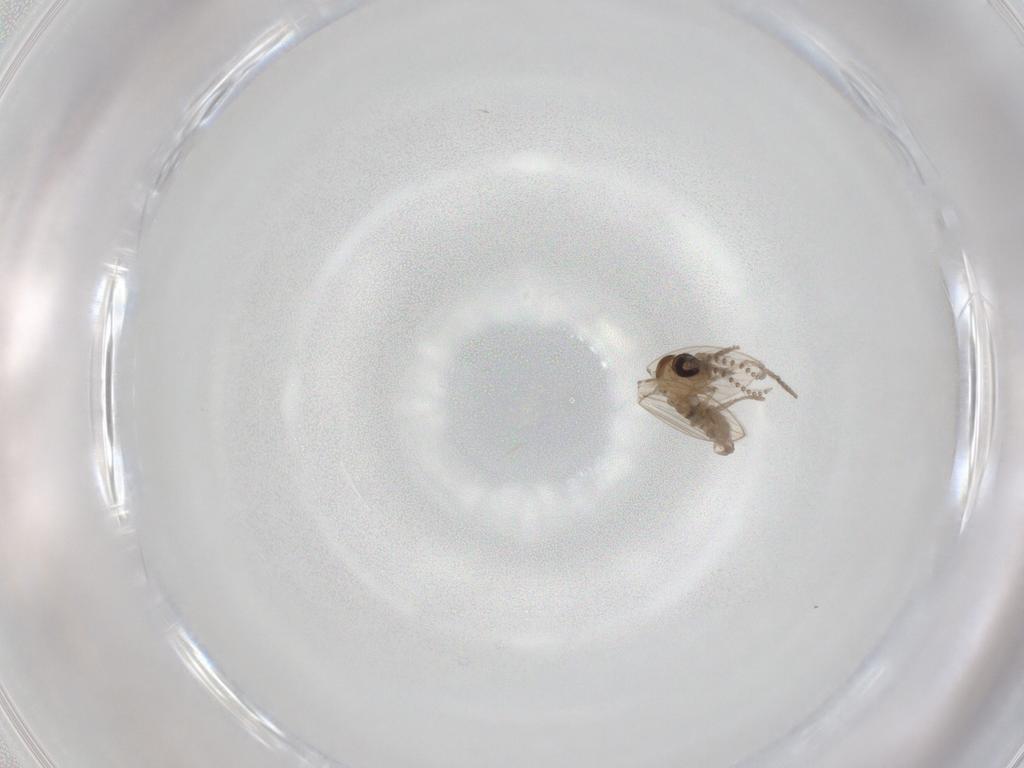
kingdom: Animalia
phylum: Arthropoda
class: Insecta
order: Diptera
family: Psychodidae
